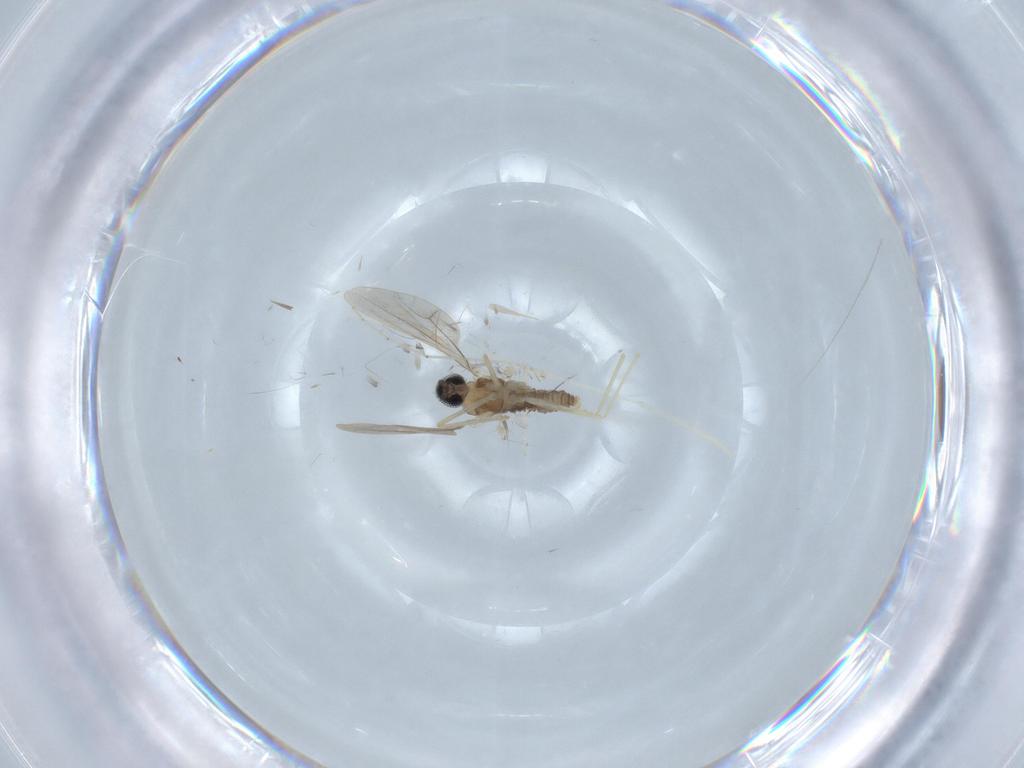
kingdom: Animalia
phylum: Arthropoda
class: Insecta
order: Diptera
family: Cecidomyiidae
